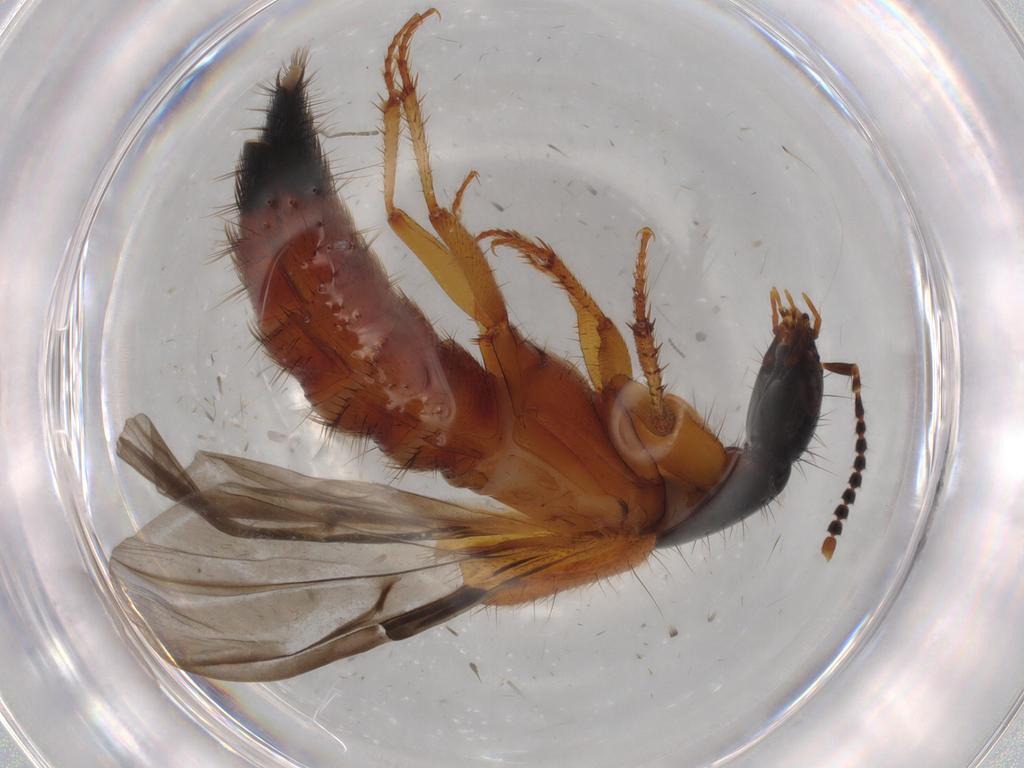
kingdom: Animalia
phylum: Arthropoda
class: Insecta
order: Coleoptera
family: Staphylinidae
